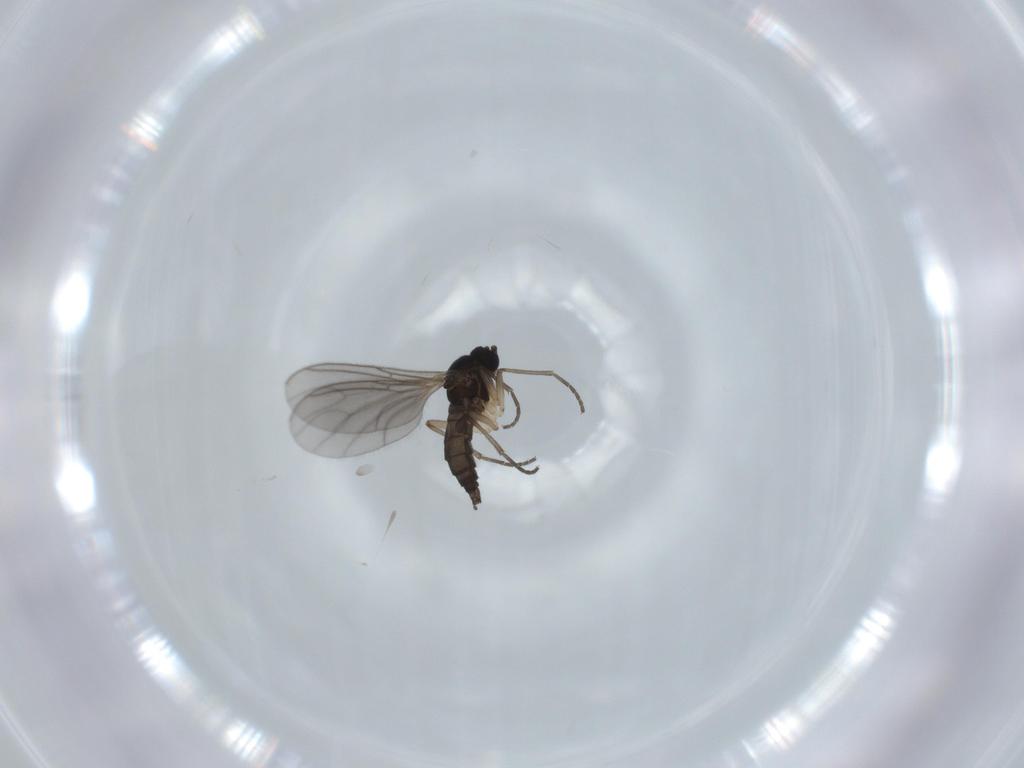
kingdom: Animalia
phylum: Arthropoda
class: Insecta
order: Diptera
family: Sciaridae
